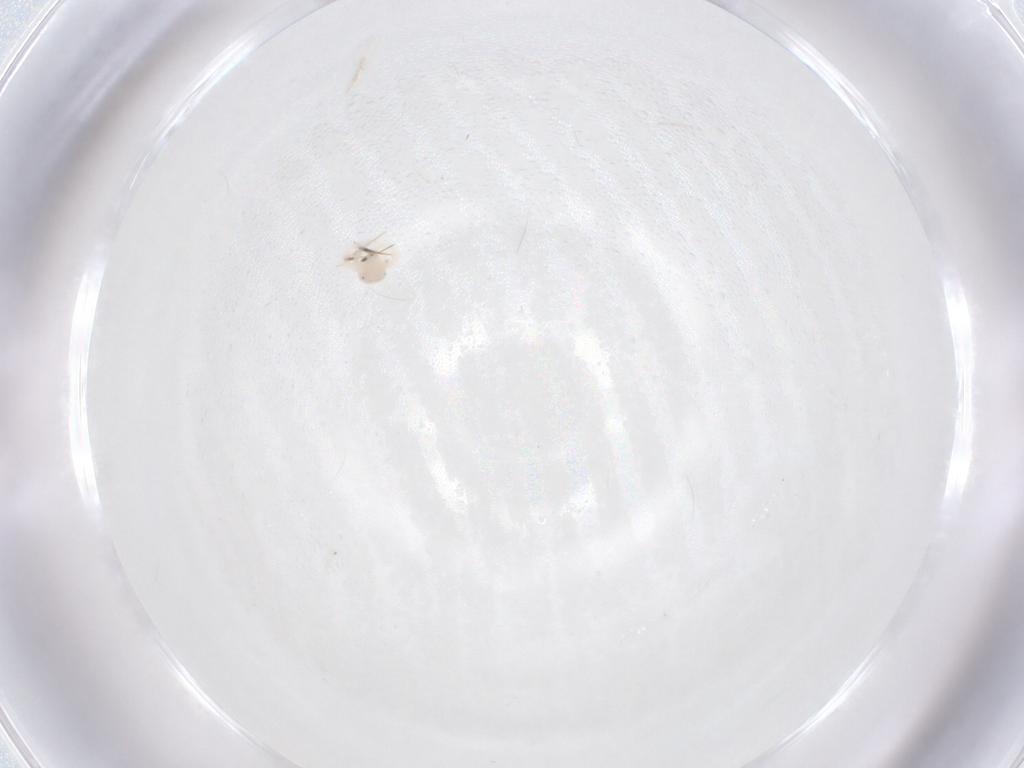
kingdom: Animalia
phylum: Arthropoda
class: Arachnida
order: Trombidiformes
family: Anystidae
